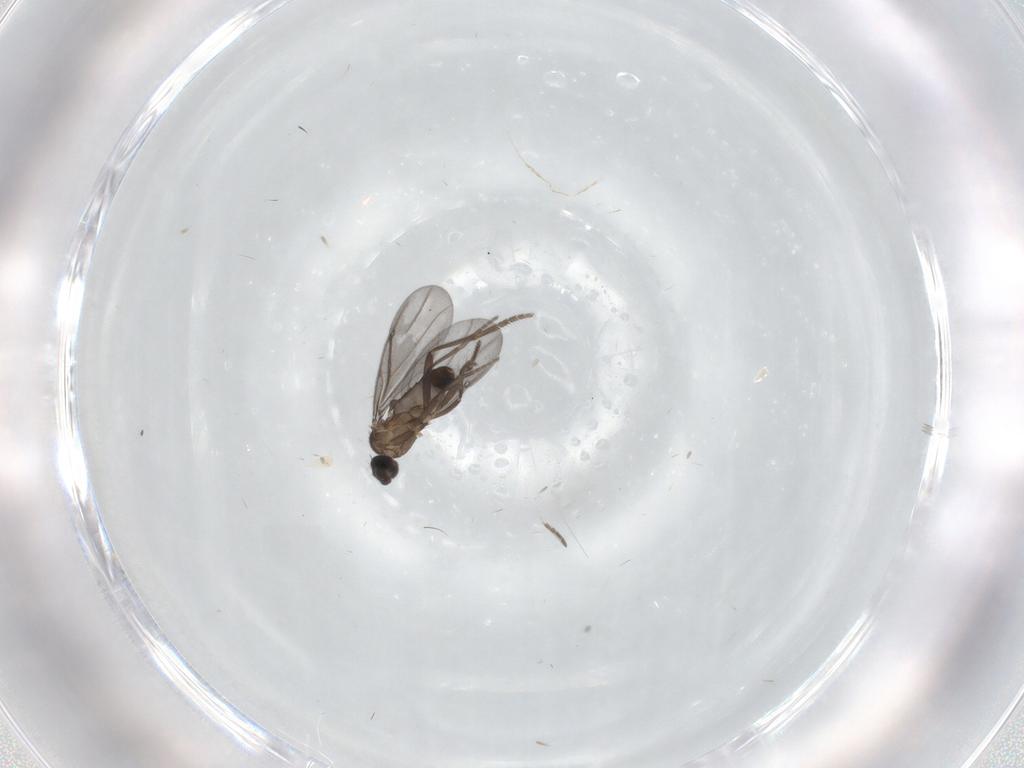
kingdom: Animalia
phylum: Arthropoda
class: Insecta
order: Diptera
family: Phoridae
